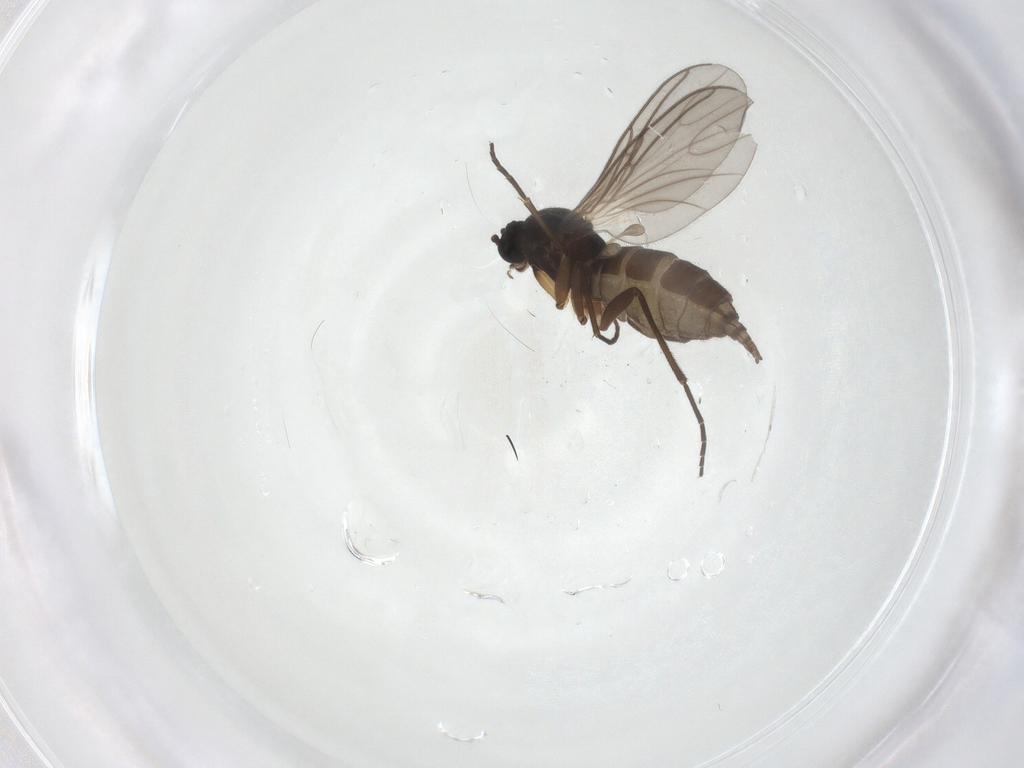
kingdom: Animalia
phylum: Arthropoda
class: Insecta
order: Diptera
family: Sciaridae
